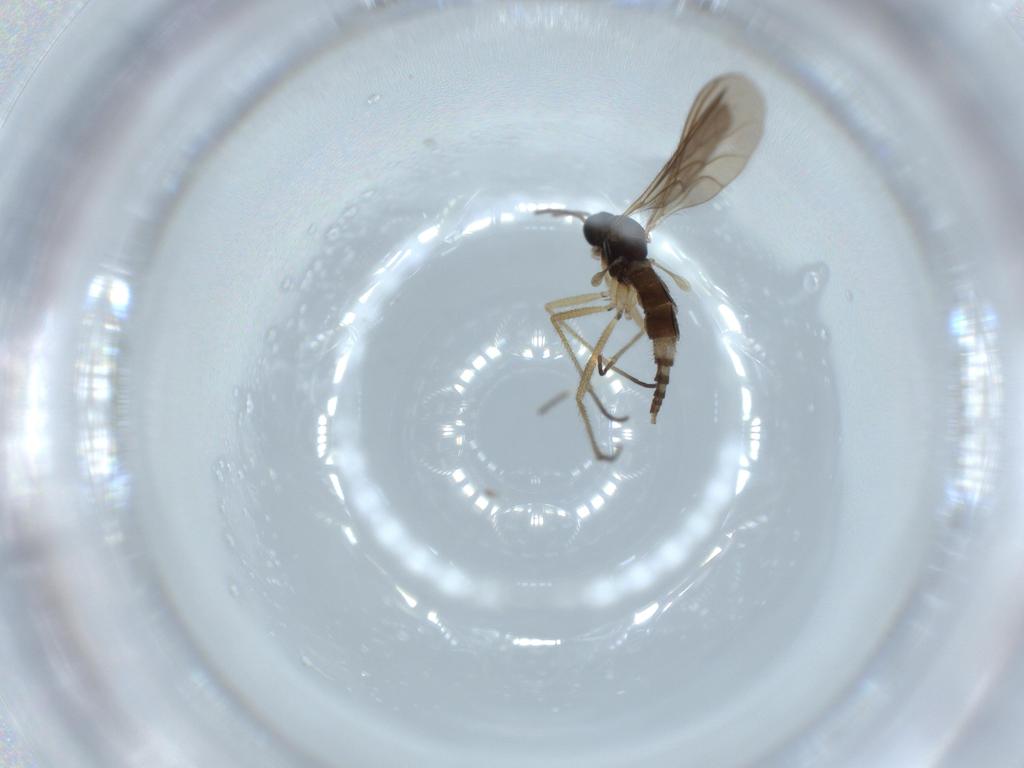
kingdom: Animalia
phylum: Arthropoda
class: Insecta
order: Diptera
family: Sciaridae
